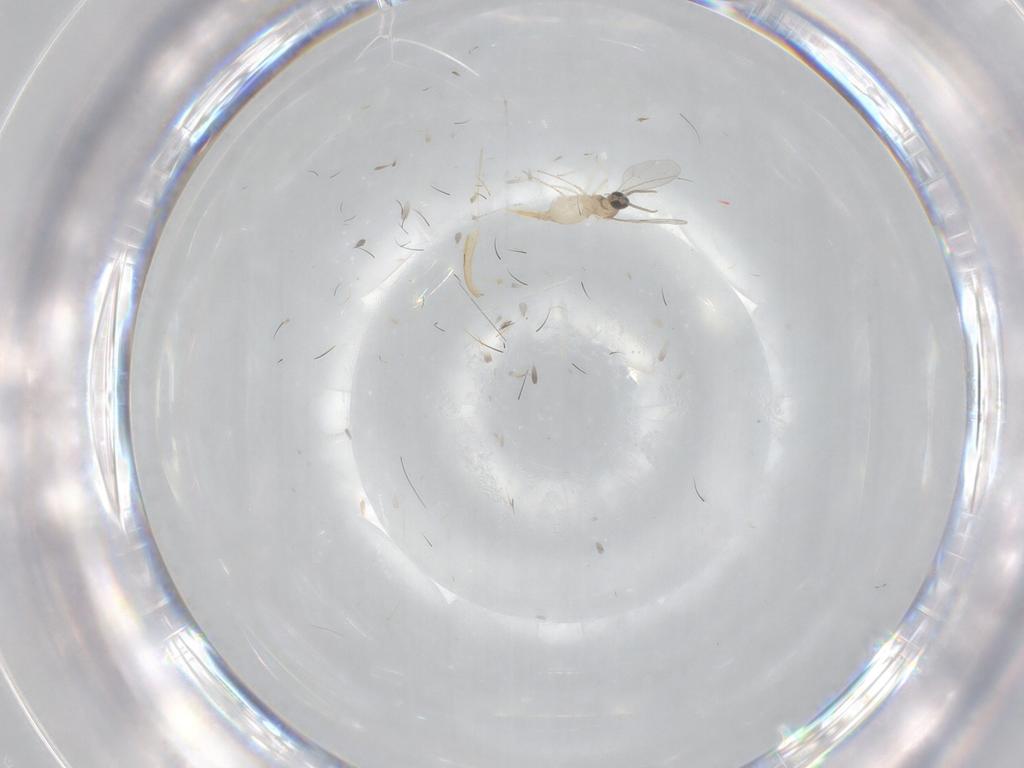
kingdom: Animalia
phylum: Arthropoda
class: Insecta
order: Diptera
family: Cecidomyiidae
